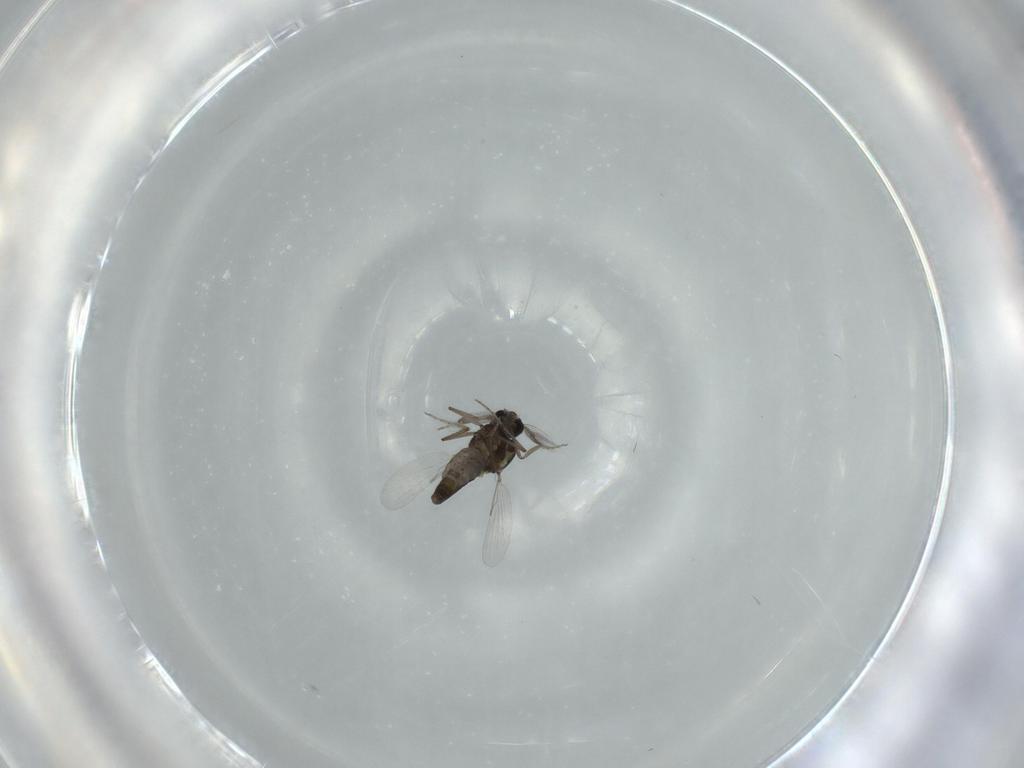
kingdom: Animalia
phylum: Arthropoda
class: Insecta
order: Diptera
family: Ceratopogonidae
